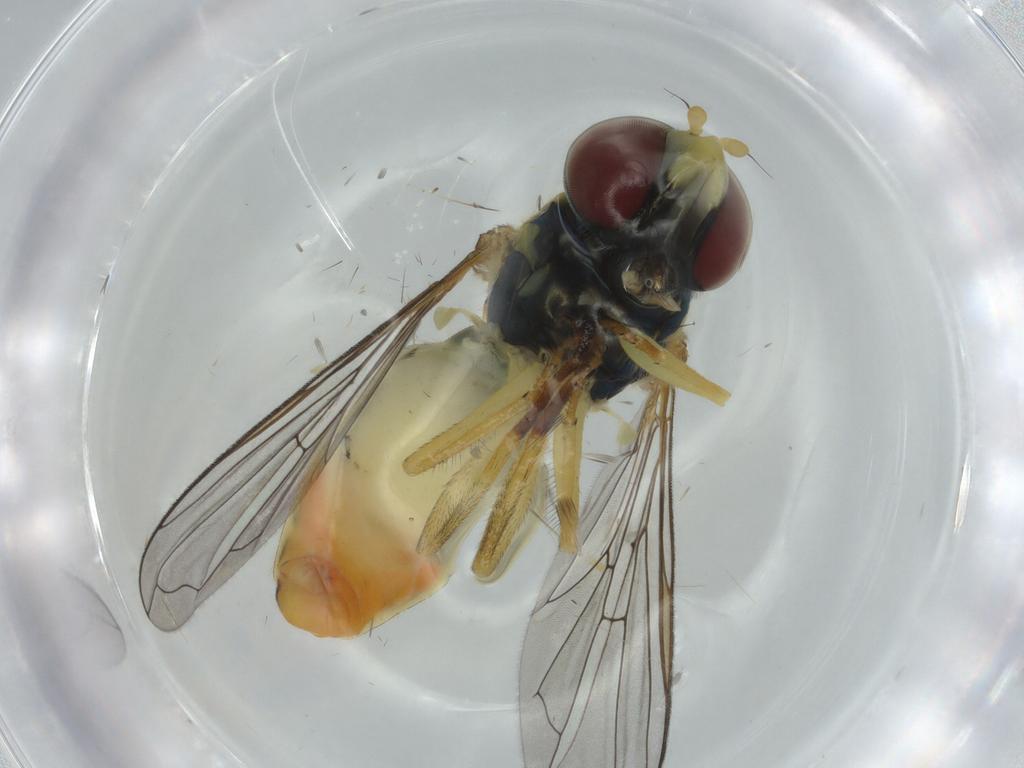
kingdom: Animalia
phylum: Arthropoda
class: Insecta
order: Diptera
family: Syrphidae
